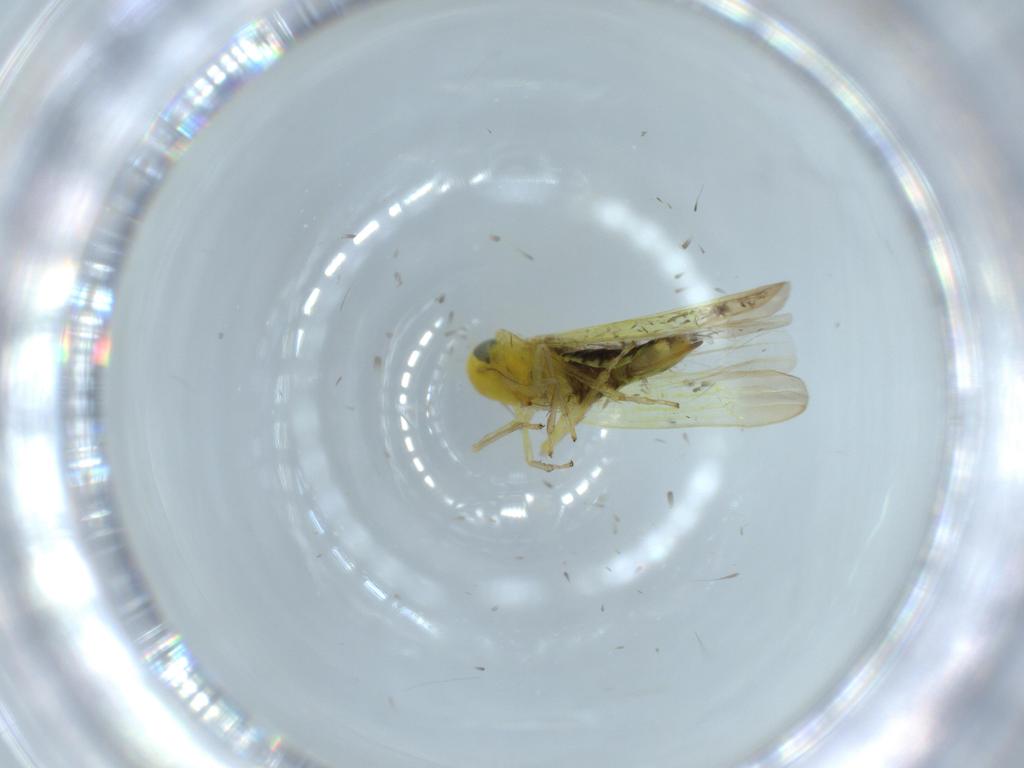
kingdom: Animalia
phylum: Arthropoda
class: Insecta
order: Hemiptera
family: Cicadellidae
